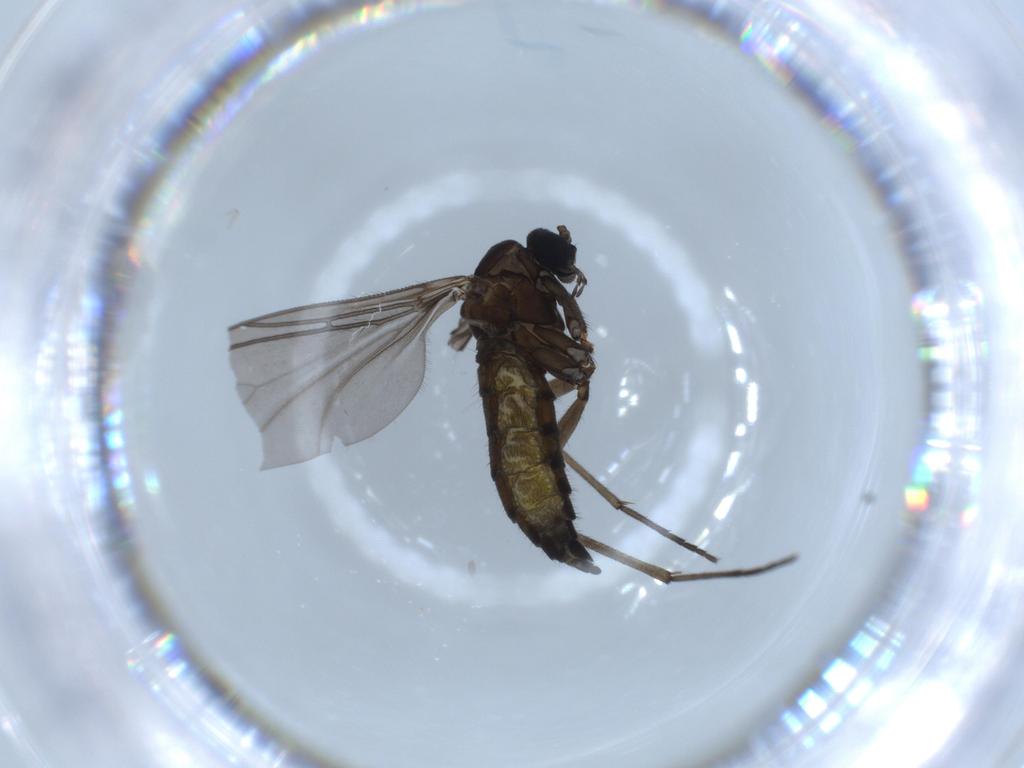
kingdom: Animalia
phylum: Arthropoda
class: Insecta
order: Diptera
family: Sciaridae
